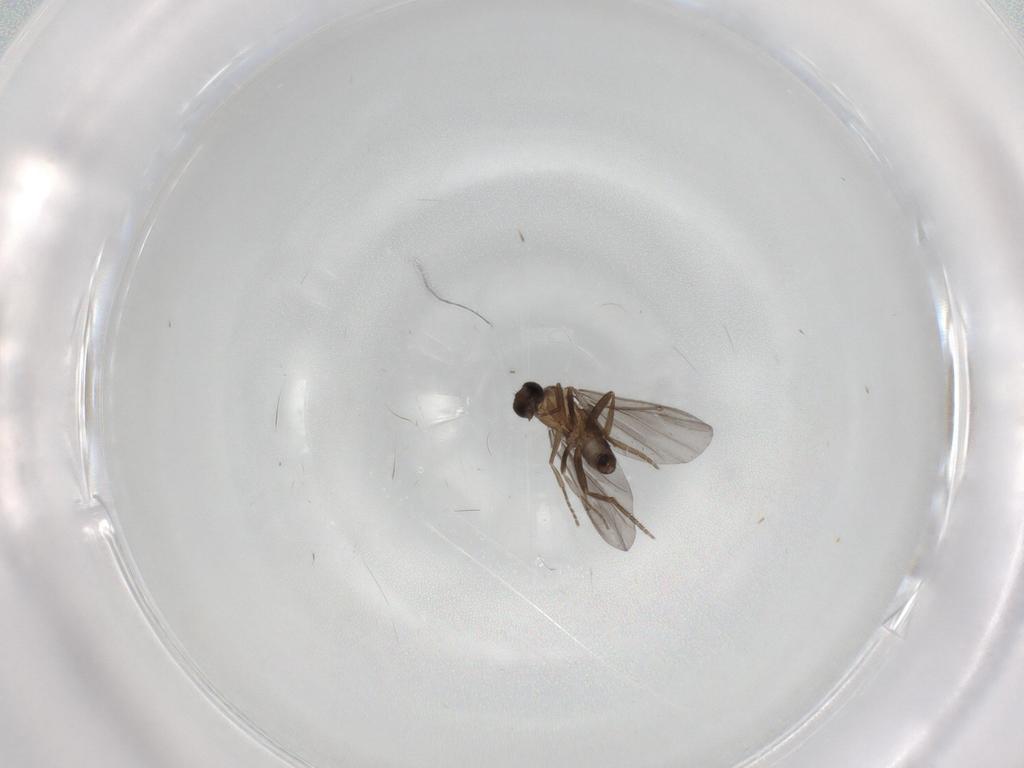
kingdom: Animalia
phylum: Arthropoda
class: Insecta
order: Diptera
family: Phoridae
